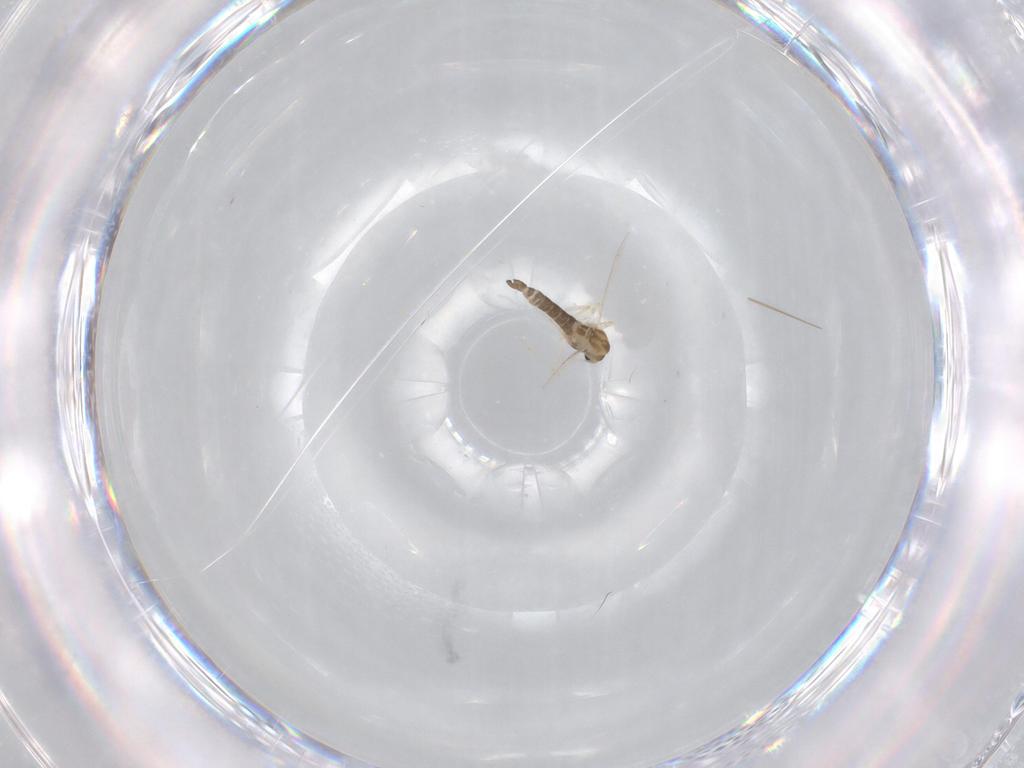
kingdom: Animalia
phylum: Arthropoda
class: Insecta
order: Diptera
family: Chironomidae
